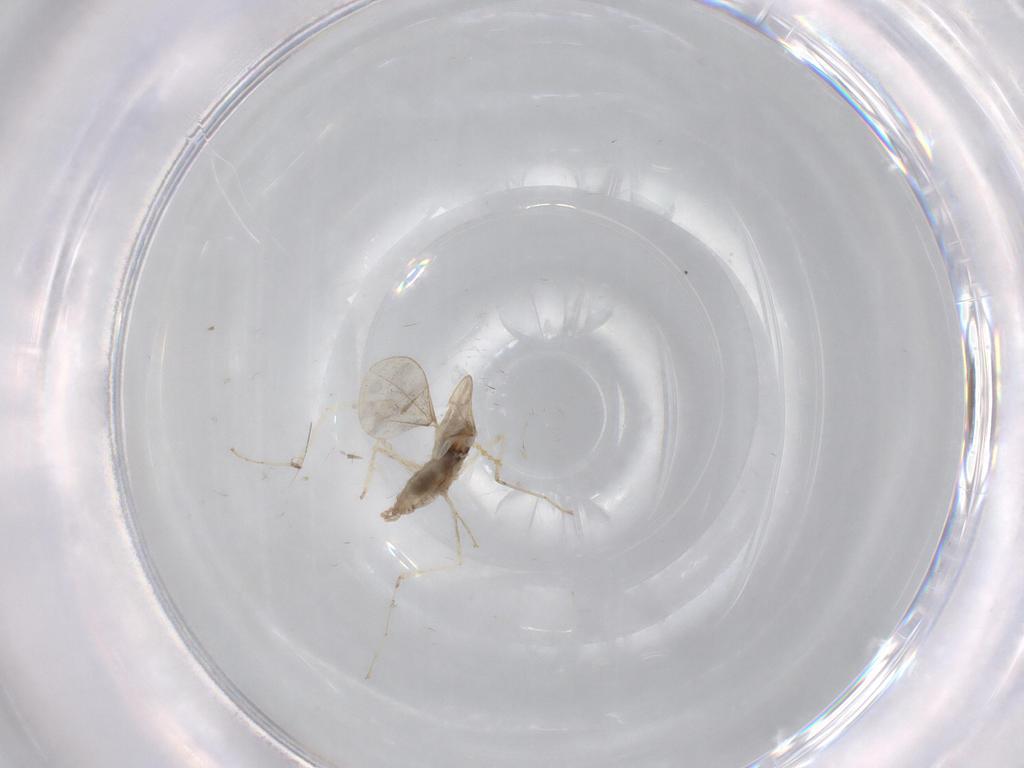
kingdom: Animalia
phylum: Arthropoda
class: Insecta
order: Diptera
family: Cecidomyiidae
